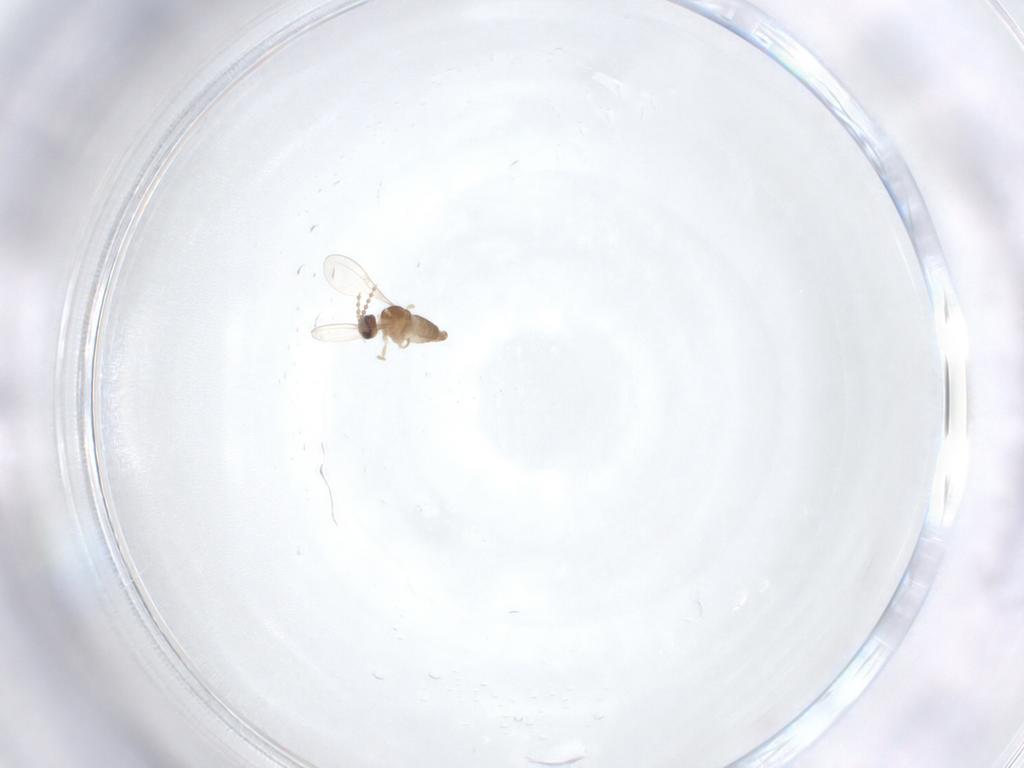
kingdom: Animalia
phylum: Arthropoda
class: Insecta
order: Diptera
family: Cecidomyiidae
